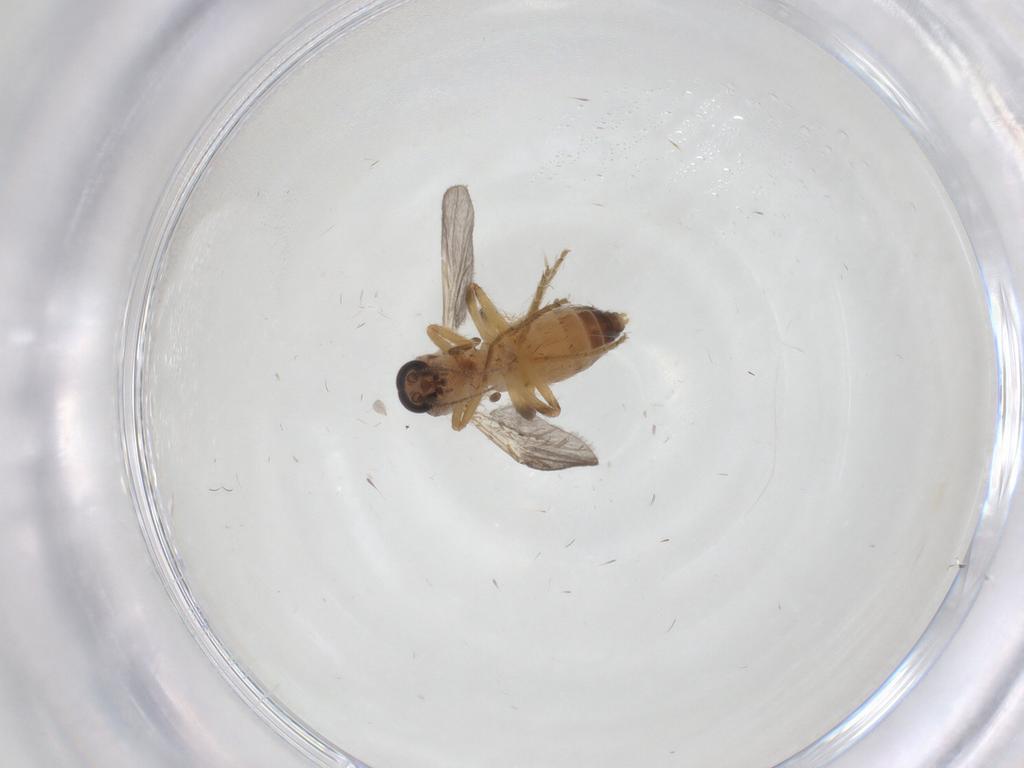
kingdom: Animalia
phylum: Arthropoda
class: Insecta
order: Diptera
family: Ceratopogonidae
